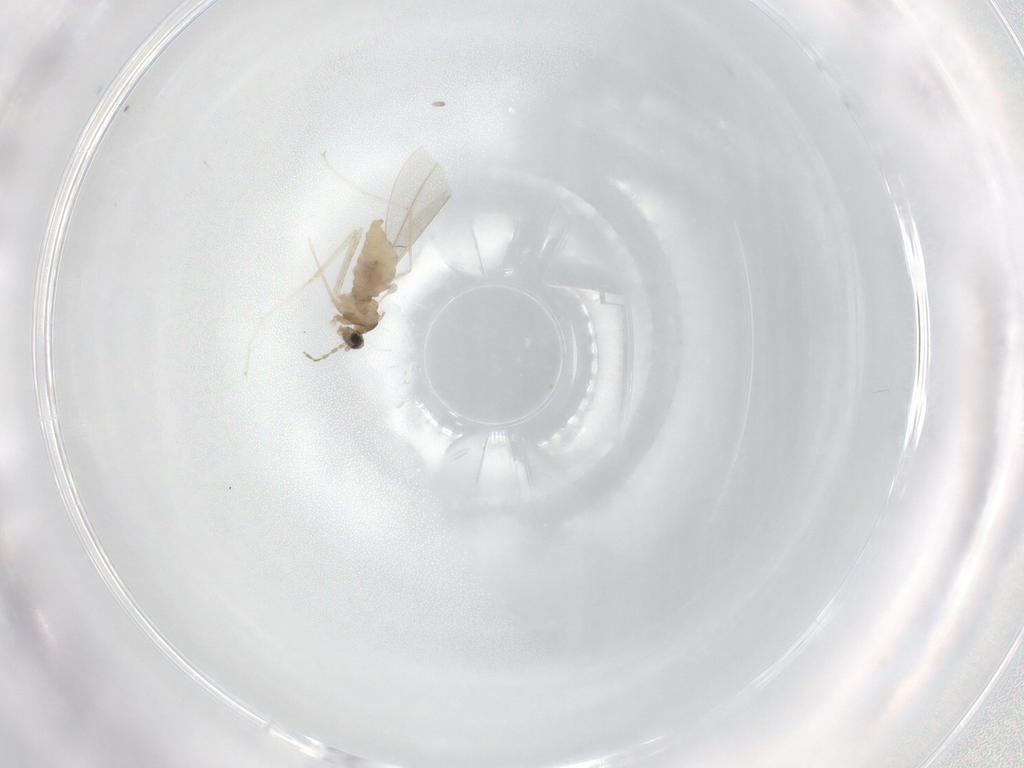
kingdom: Animalia
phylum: Arthropoda
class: Insecta
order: Diptera
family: Cecidomyiidae
